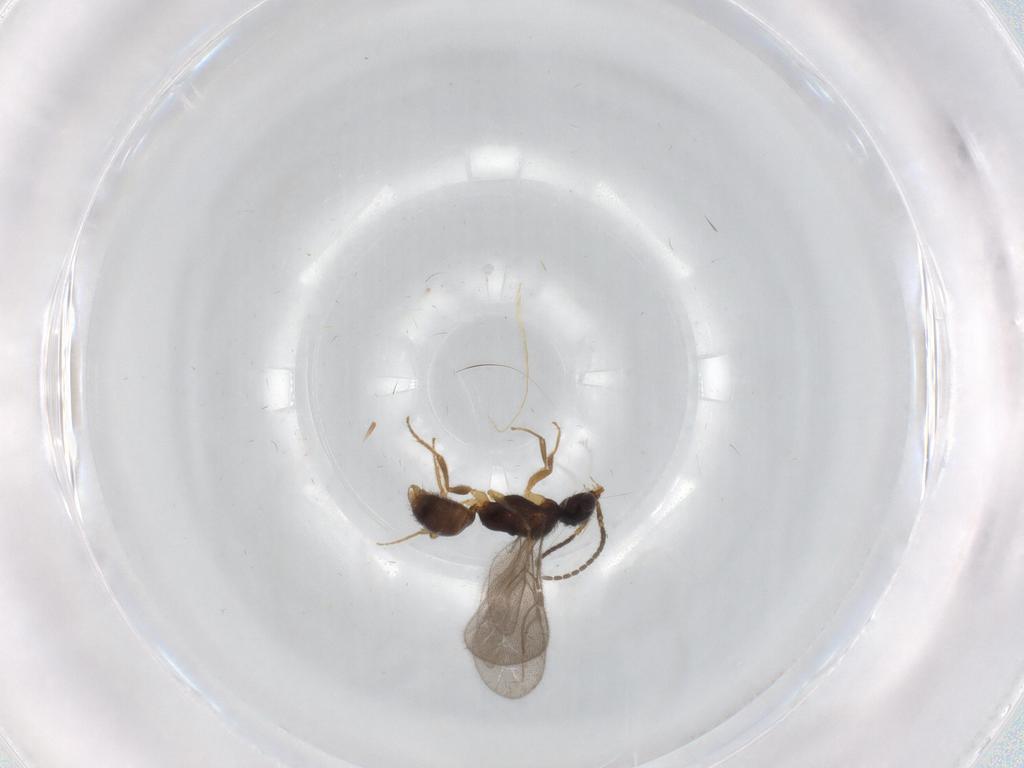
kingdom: Animalia
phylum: Arthropoda
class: Insecta
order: Hymenoptera
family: Bethylidae
